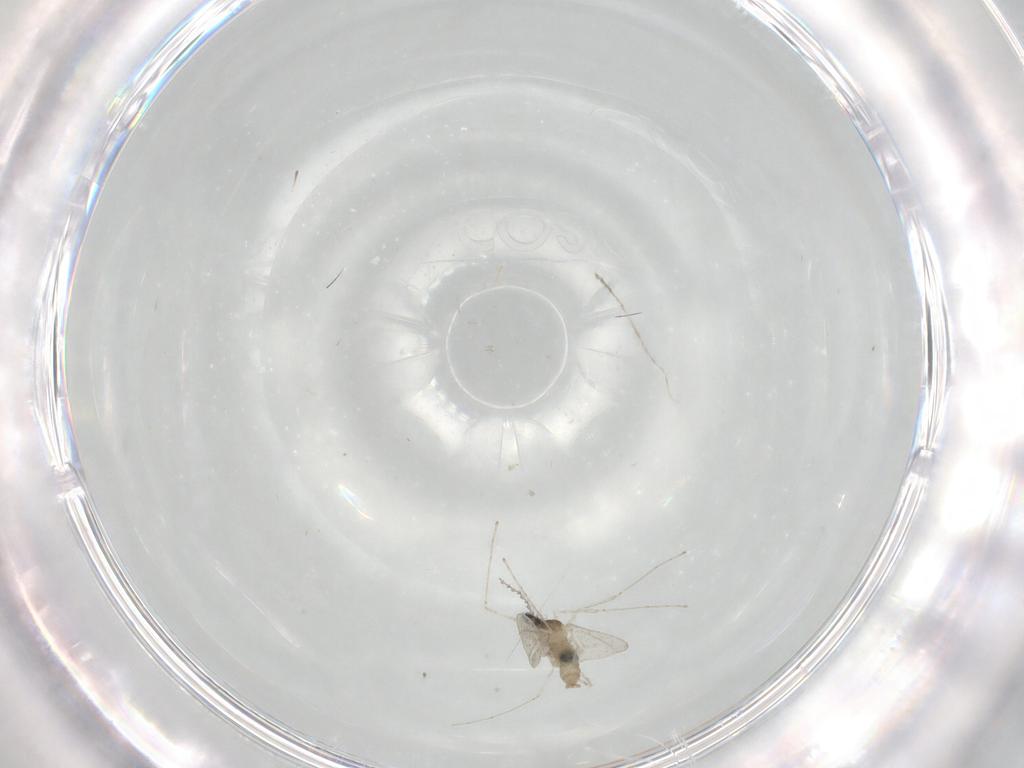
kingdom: Animalia
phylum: Arthropoda
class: Insecta
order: Diptera
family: Cecidomyiidae
